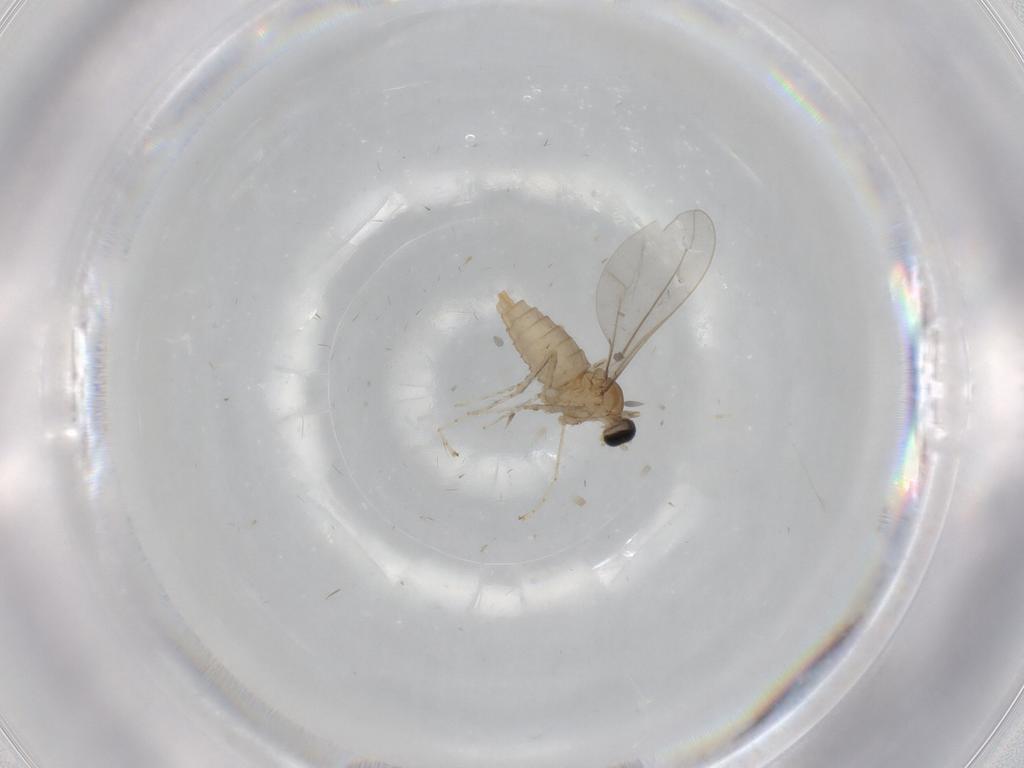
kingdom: Animalia
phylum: Arthropoda
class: Insecta
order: Diptera
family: Cecidomyiidae
